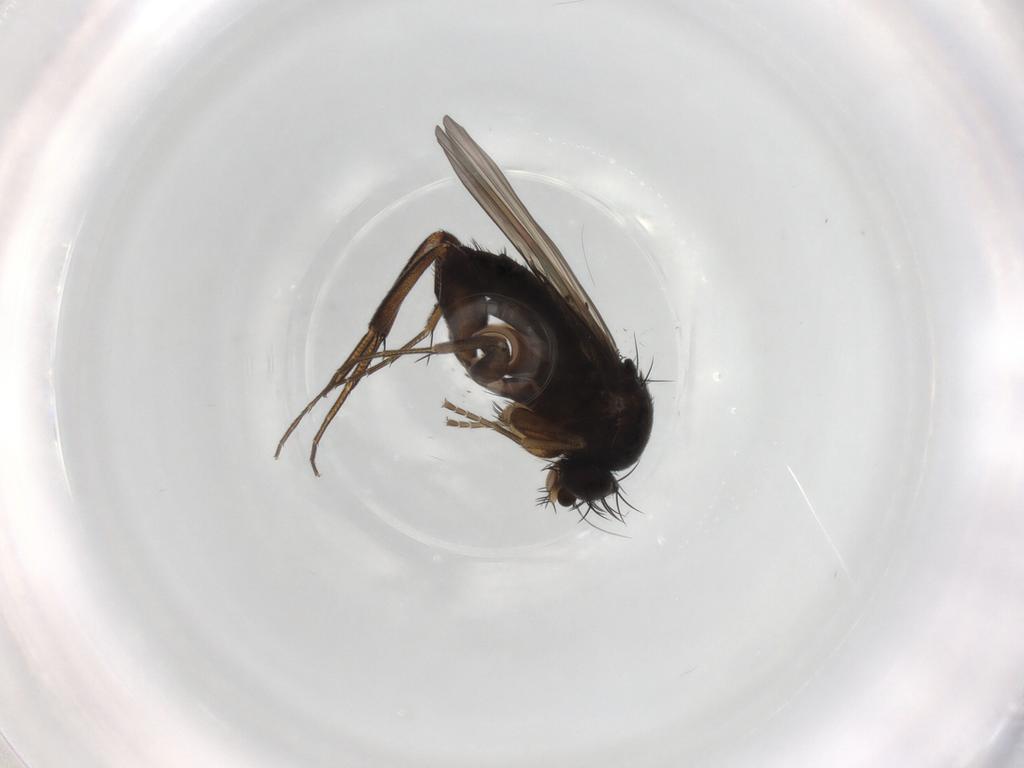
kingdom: Animalia
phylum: Arthropoda
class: Insecta
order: Diptera
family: Phoridae
